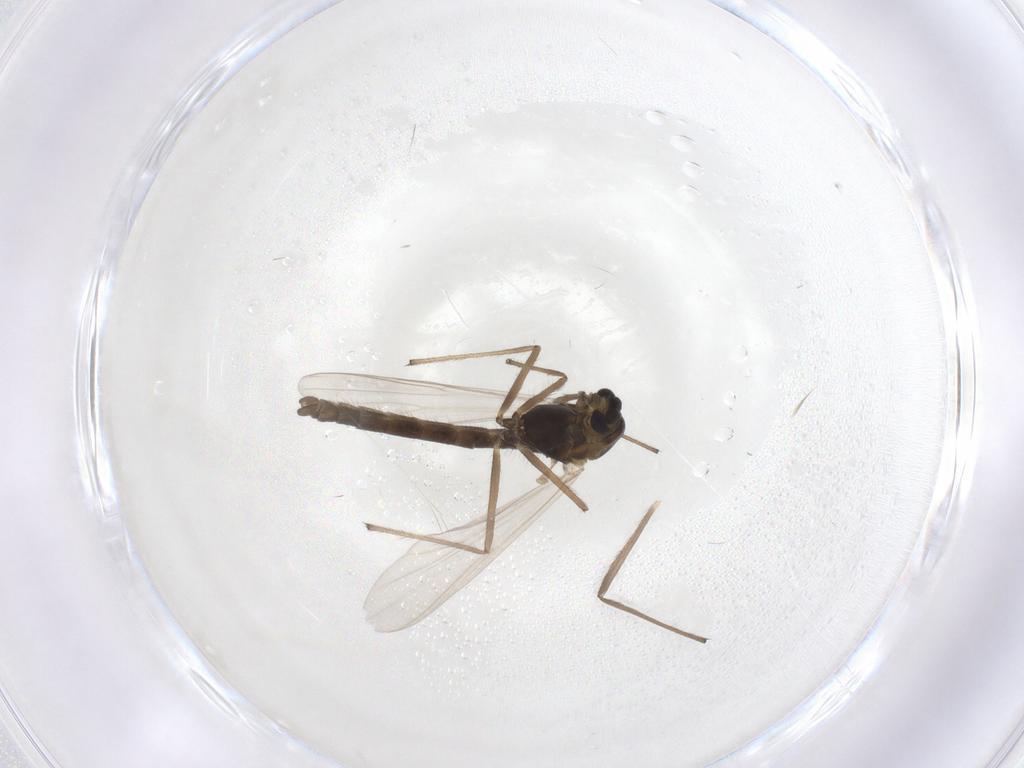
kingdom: Animalia
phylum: Arthropoda
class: Insecta
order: Diptera
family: Chironomidae
